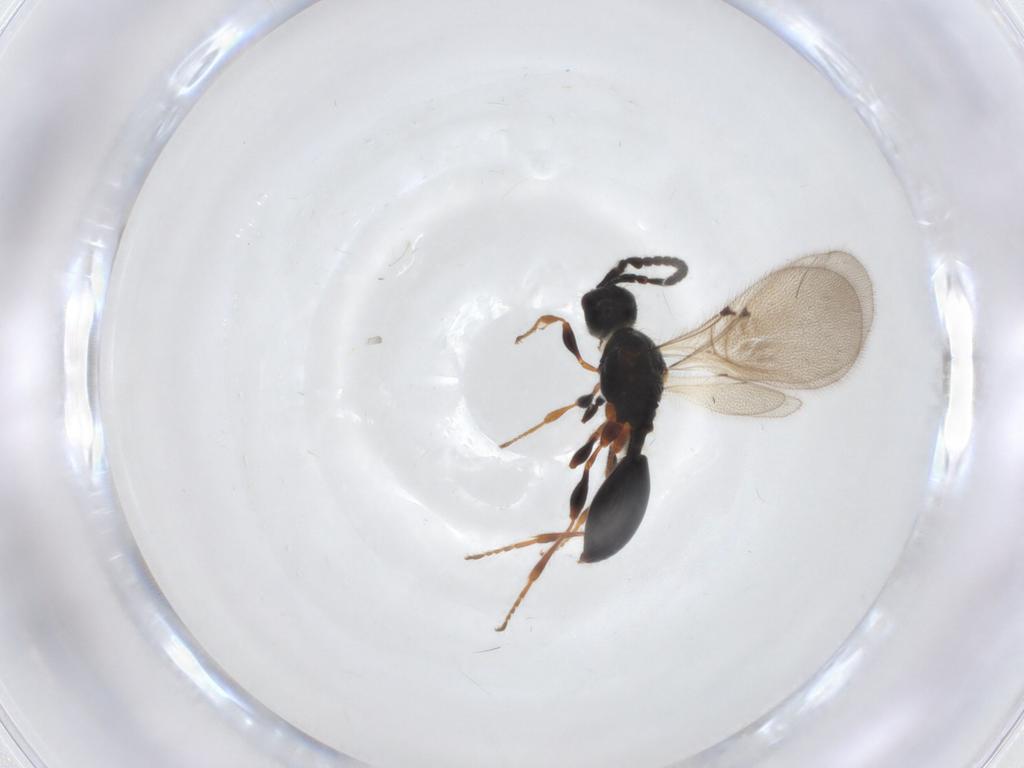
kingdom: Animalia
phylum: Arthropoda
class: Insecta
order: Hymenoptera
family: Diapriidae
